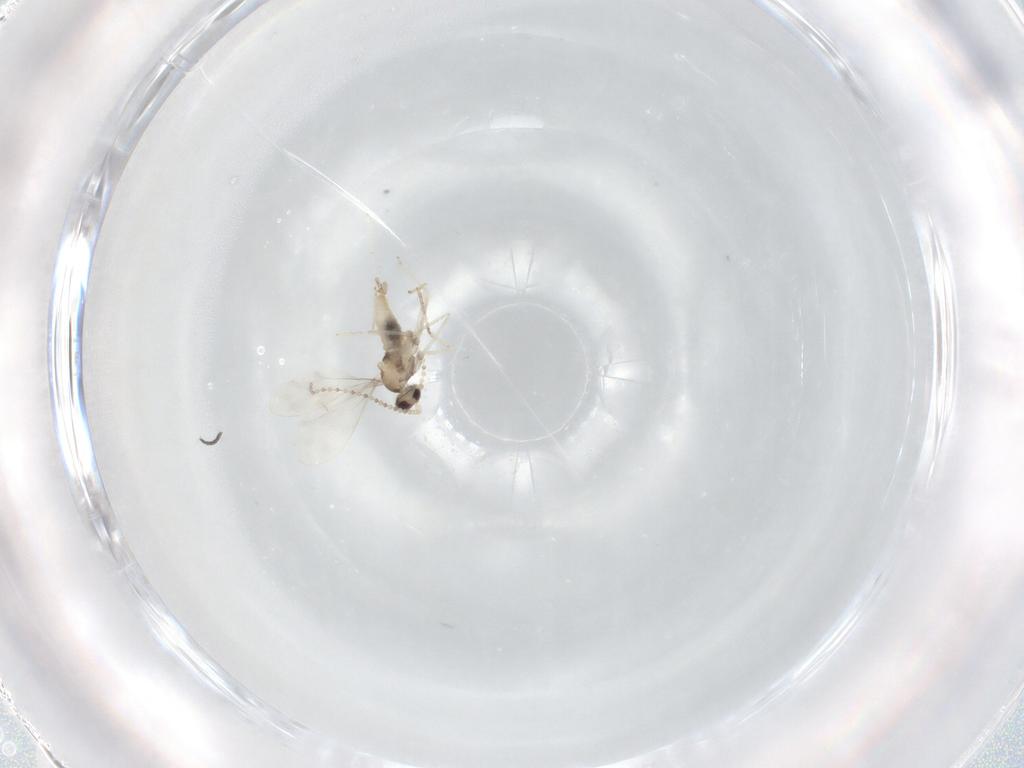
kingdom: Animalia
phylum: Arthropoda
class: Insecta
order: Diptera
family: Cecidomyiidae
